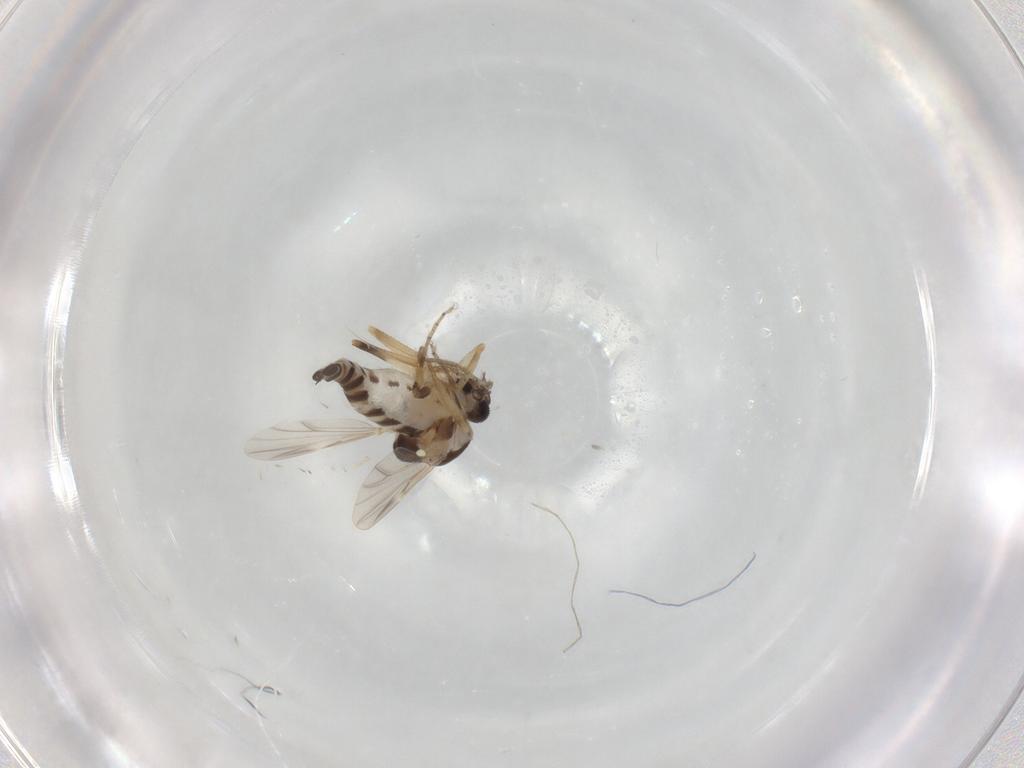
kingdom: Animalia
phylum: Arthropoda
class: Insecta
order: Diptera
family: Ceratopogonidae
